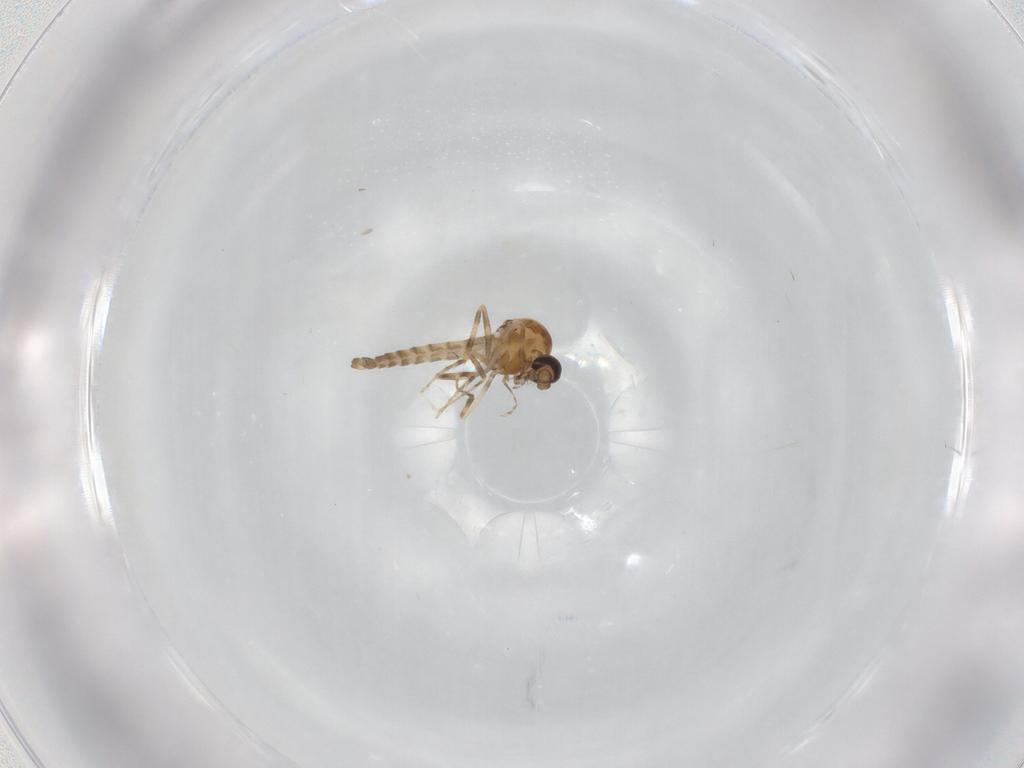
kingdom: Animalia
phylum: Arthropoda
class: Insecta
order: Diptera
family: Ceratopogonidae
